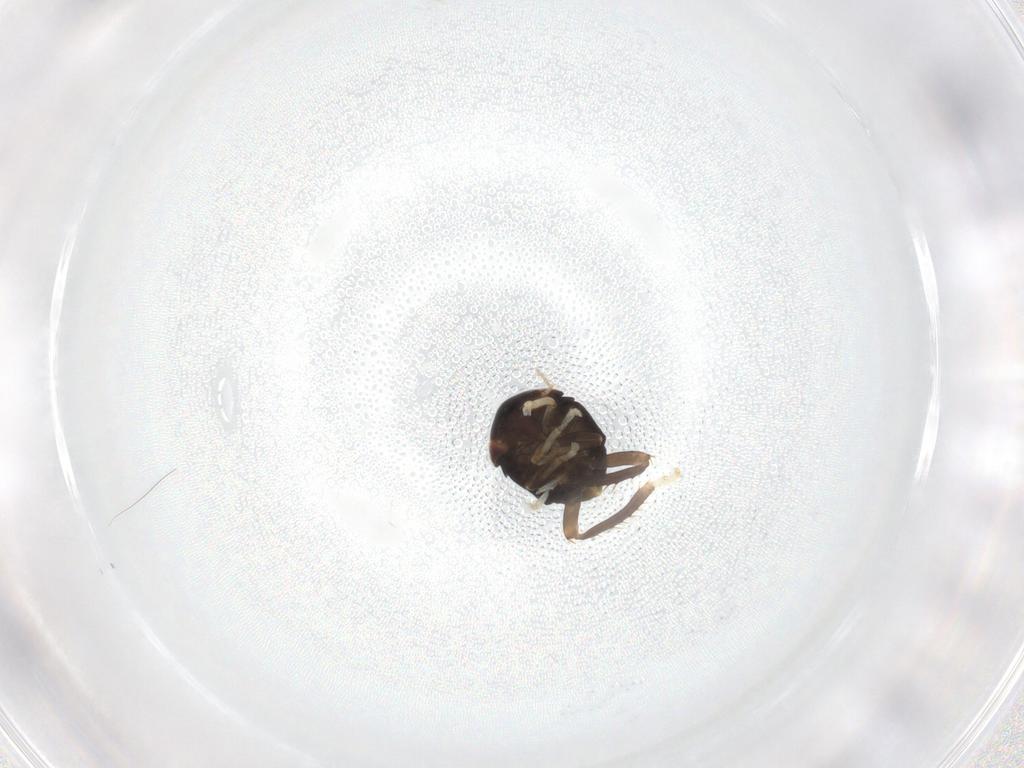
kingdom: Animalia
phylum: Arthropoda
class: Insecta
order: Hemiptera
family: Cicadellidae
